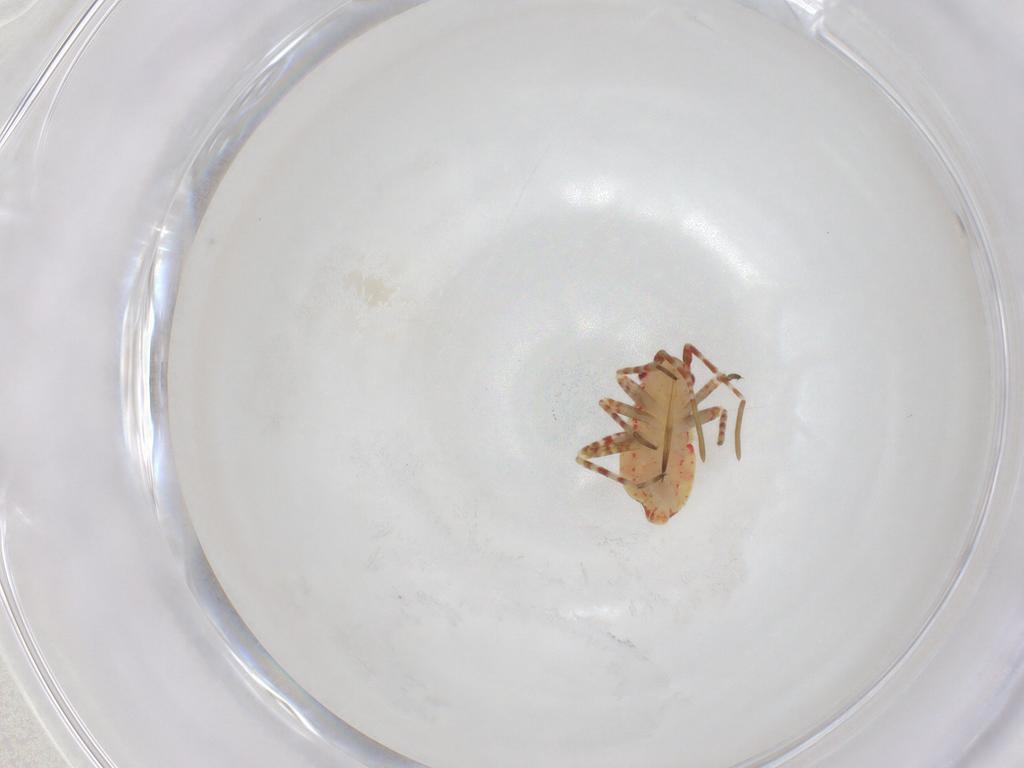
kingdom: Animalia
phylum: Arthropoda
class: Insecta
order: Hemiptera
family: Miridae
